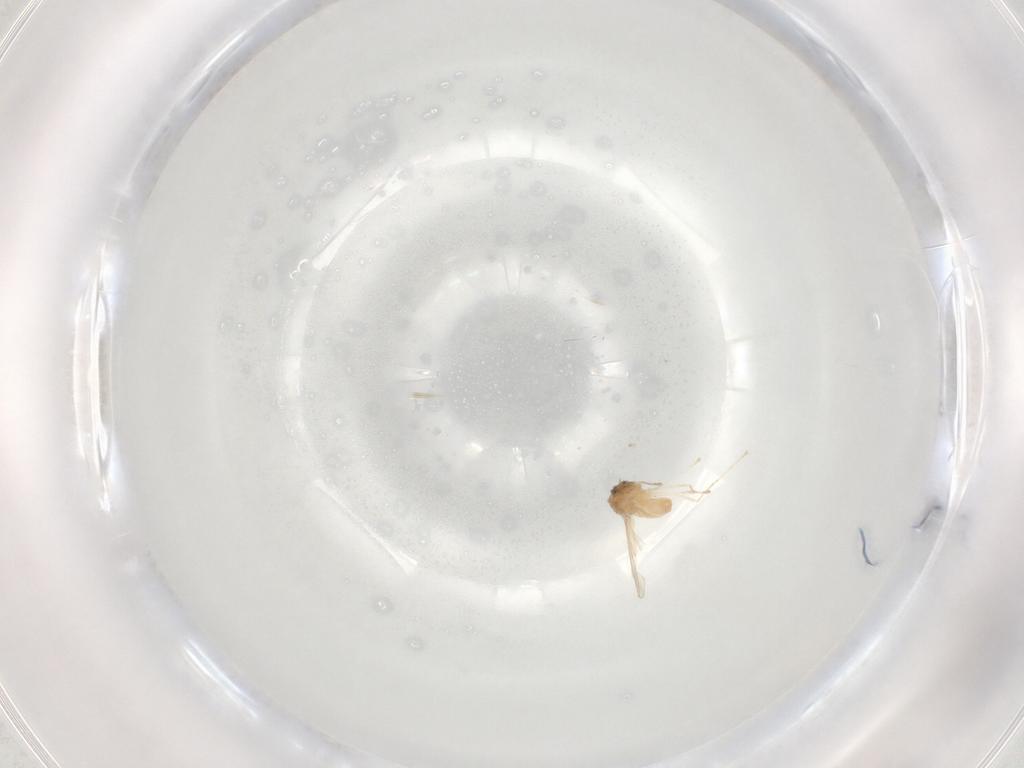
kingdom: Animalia
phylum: Arthropoda
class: Insecta
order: Diptera
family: Cecidomyiidae
